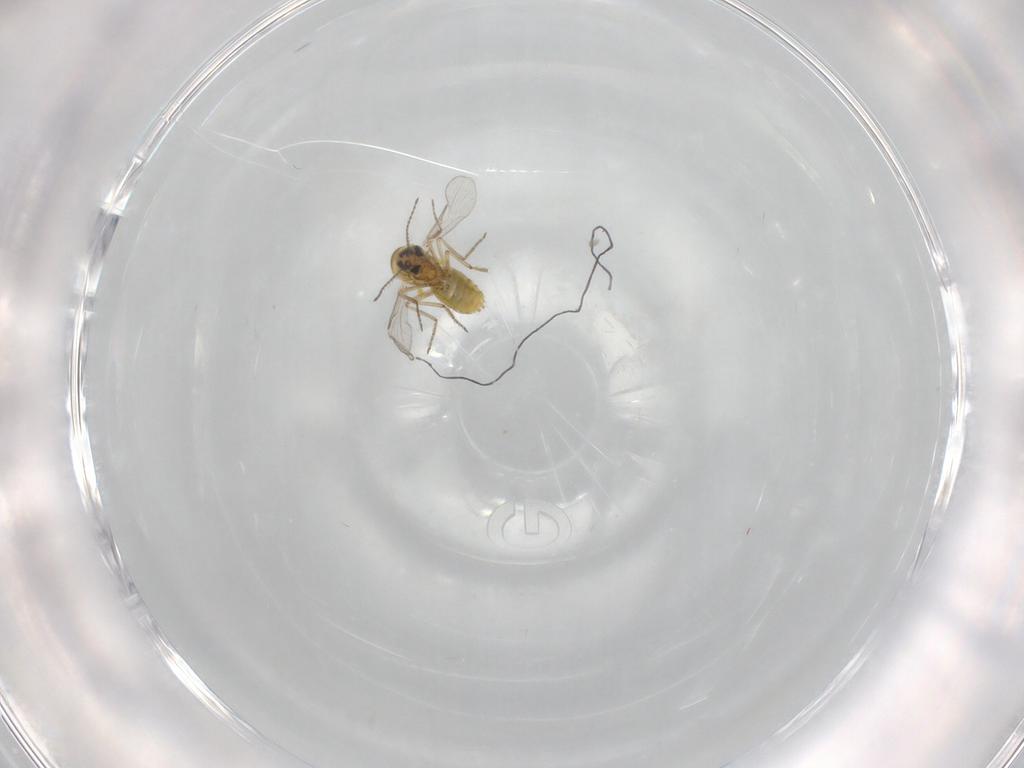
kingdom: Animalia
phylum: Arthropoda
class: Insecta
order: Diptera
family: Ceratopogonidae
